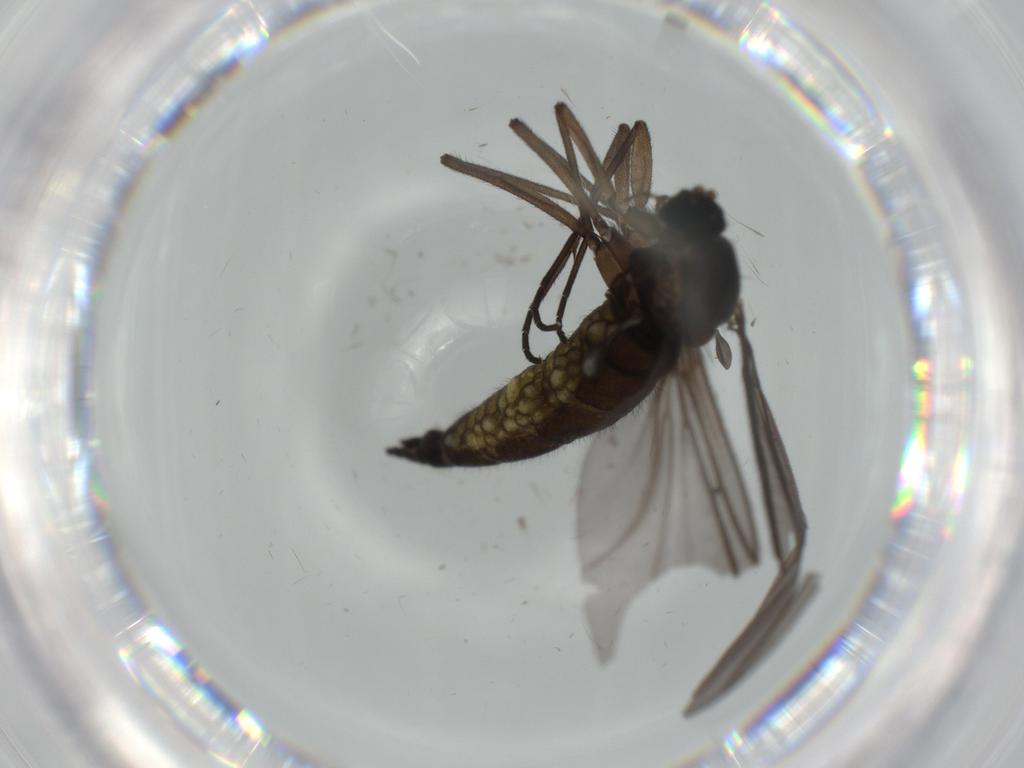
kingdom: Animalia
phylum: Arthropoda
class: Insecta
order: Diptera
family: Sciaridae
